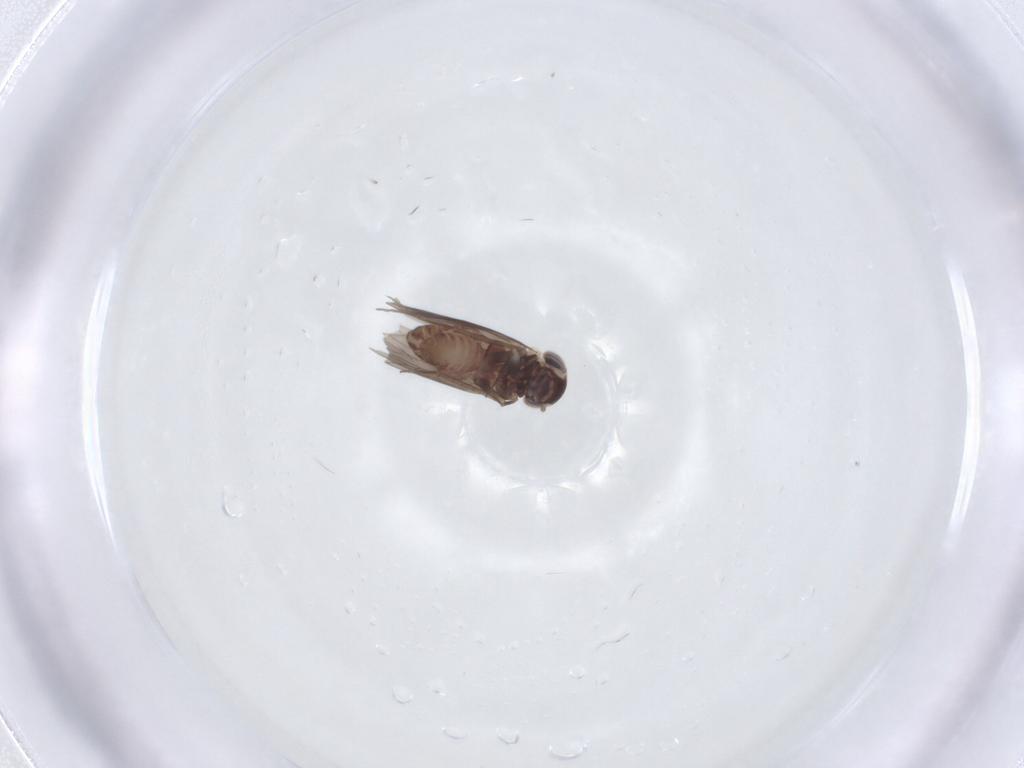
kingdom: Animalia
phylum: Arthropoda
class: Insecta
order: Psocodea
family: Amphientomidae
